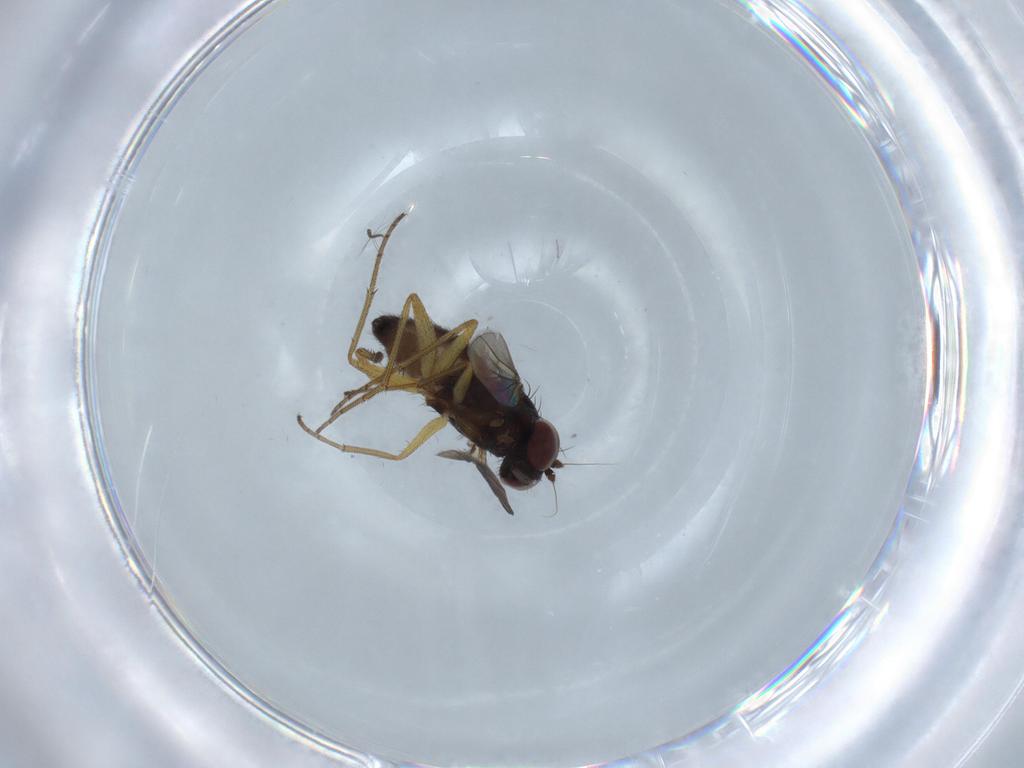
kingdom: Animalia
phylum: Arthropoda
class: Insecta
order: Diptera
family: Dolichopodidae
